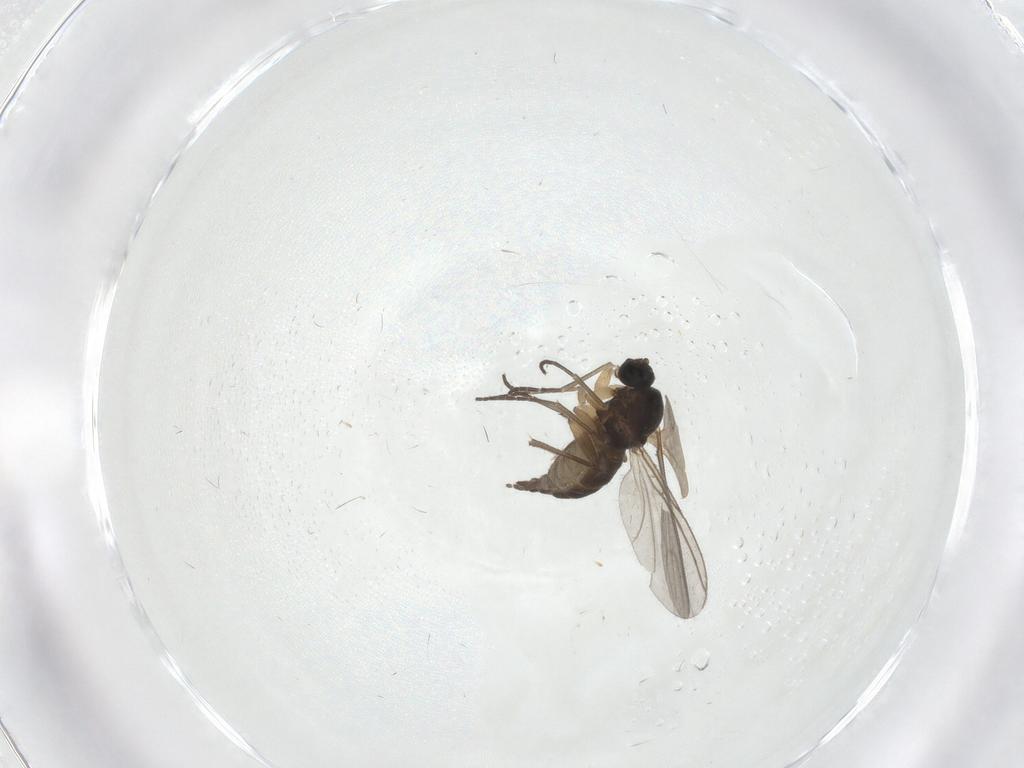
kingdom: Animalia
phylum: Arthropoda
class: Insecta
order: Diptera
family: Sciaridae
